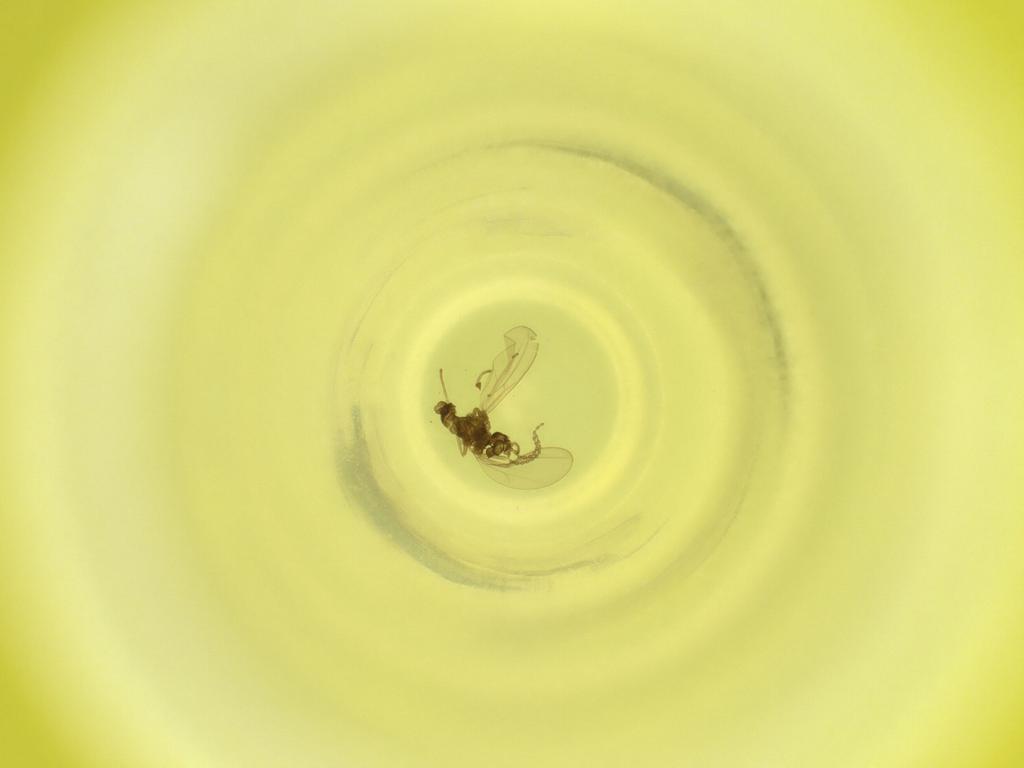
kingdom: Animalia
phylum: Arthropoda
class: Insecta
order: Diptera
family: Cecidomyiidae
